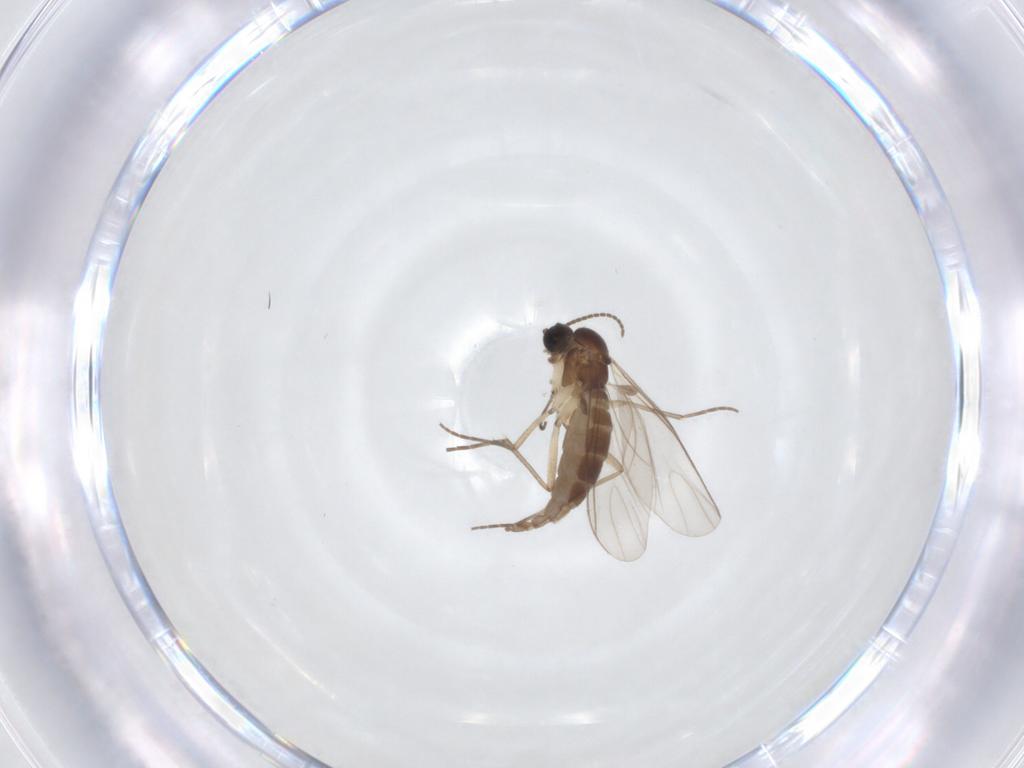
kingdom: Animalia
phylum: Arthropoda
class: Insecta
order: Diptera
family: Sciaridae
